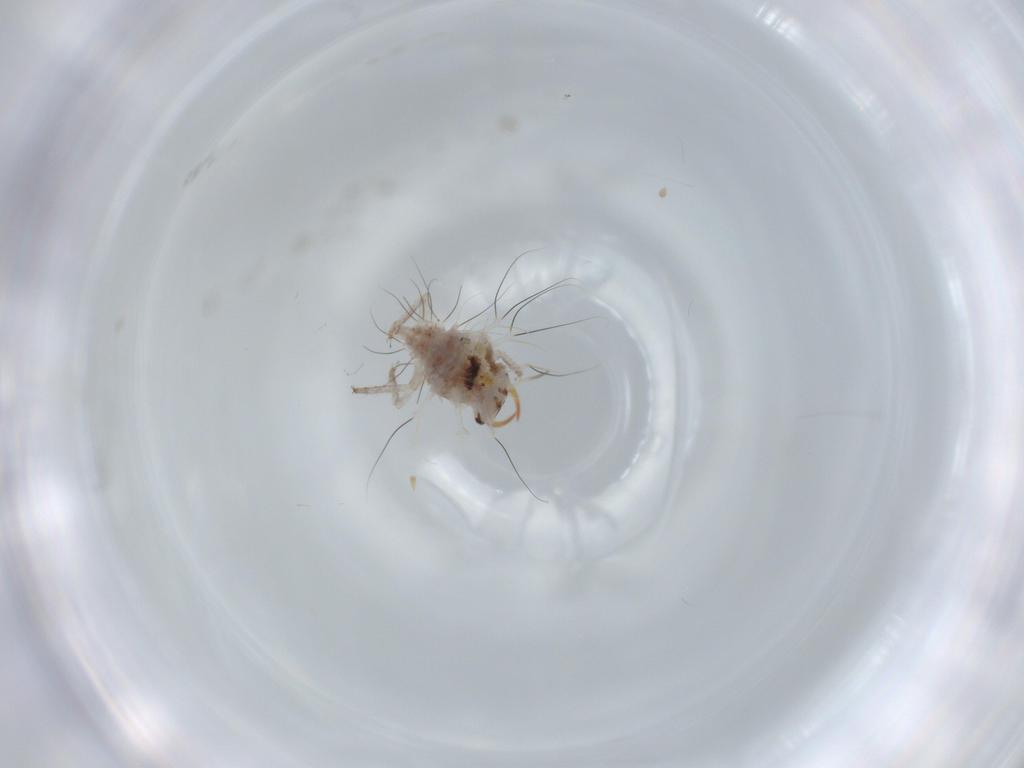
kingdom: Animalia
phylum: Arthropoda
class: Insecta
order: Neuroptera
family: Chrysopidae
